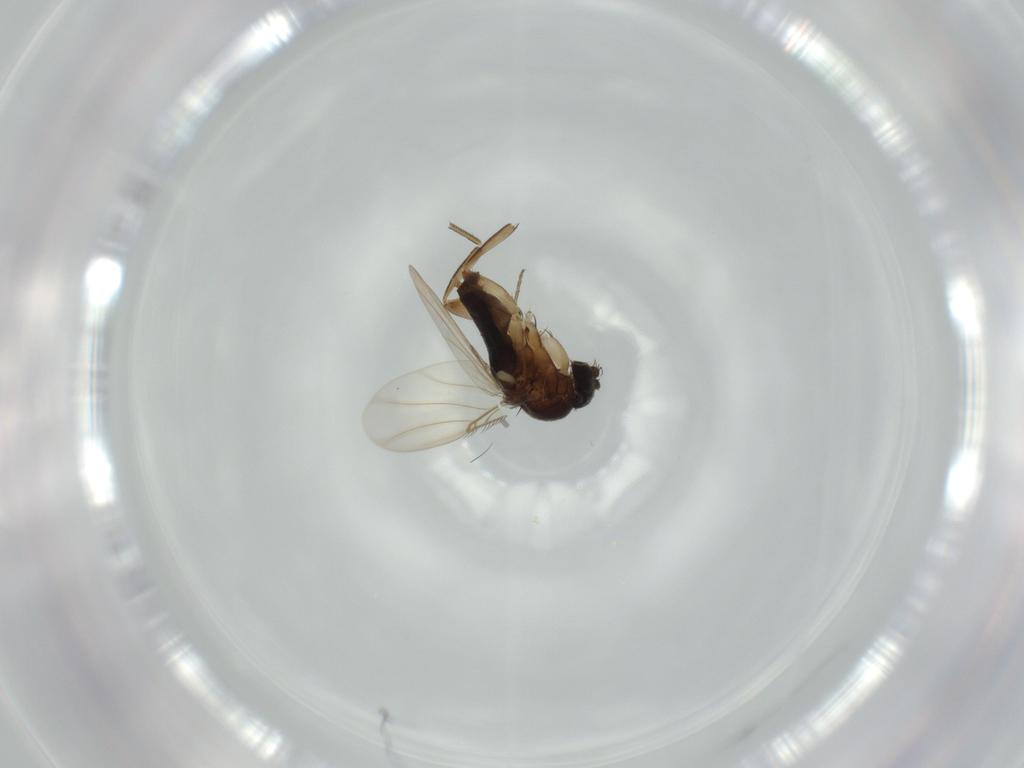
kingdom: Animalia
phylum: Arthropoda
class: Insecta
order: Diptera
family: Phoridae
